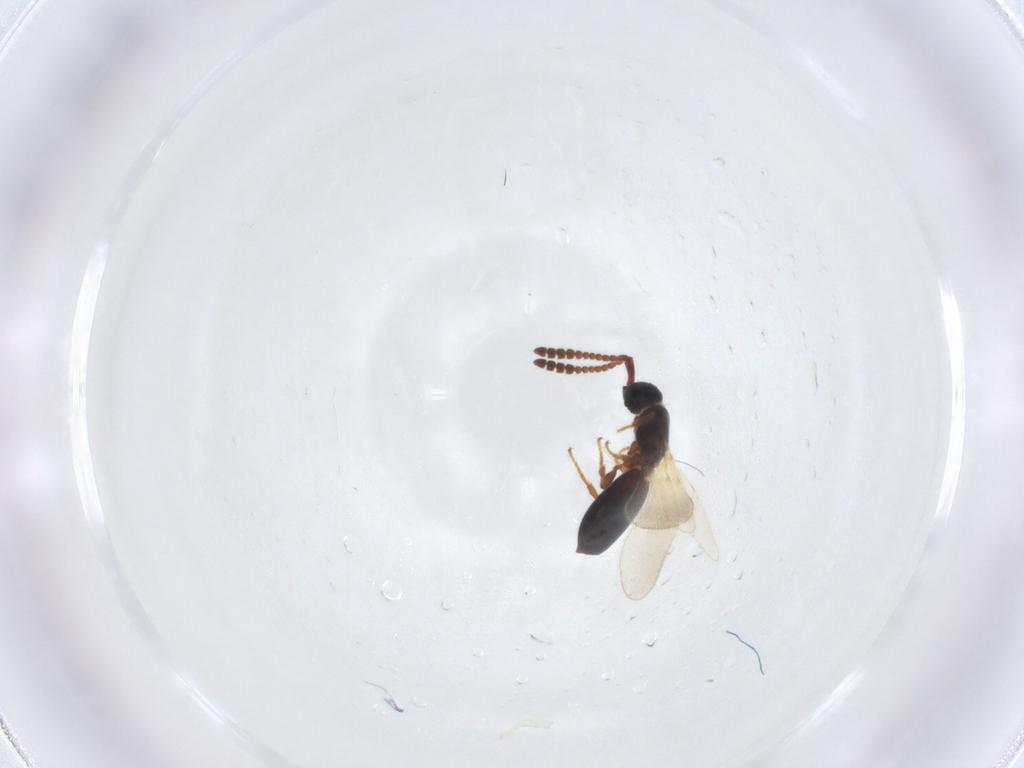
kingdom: Animalia
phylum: Arthropoda
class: Insecta
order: Hymenoptera
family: Diapriidae
